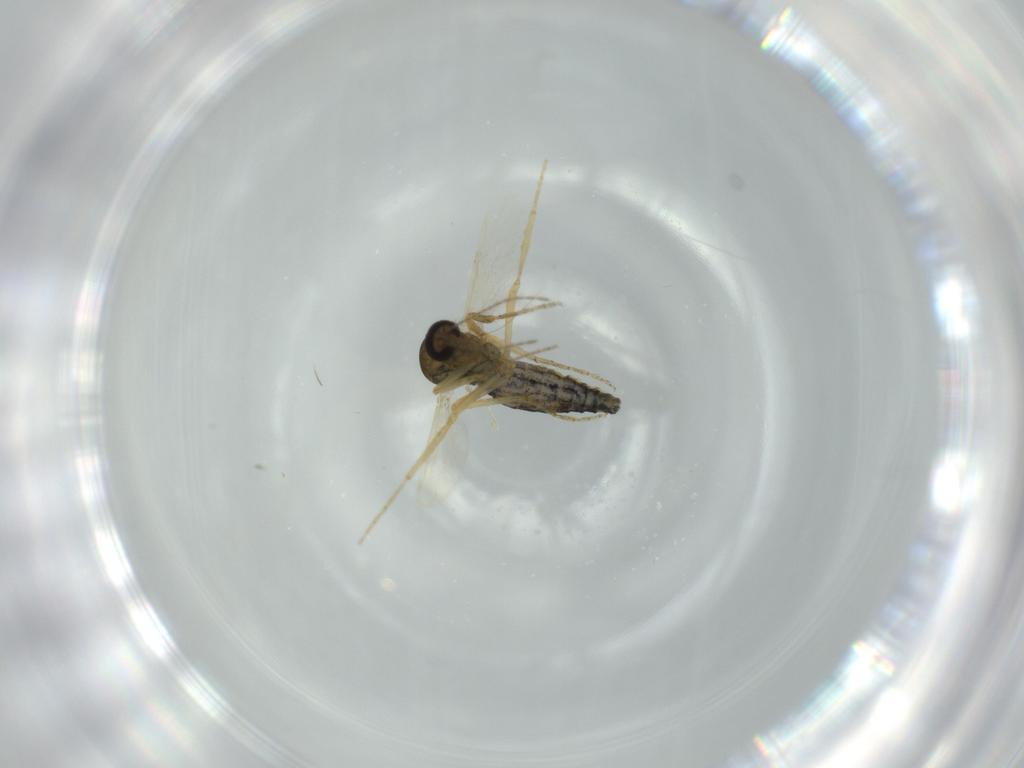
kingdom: Animalia
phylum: Arthropoda
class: Insecta
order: Diptera
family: Ceratopogonidae
